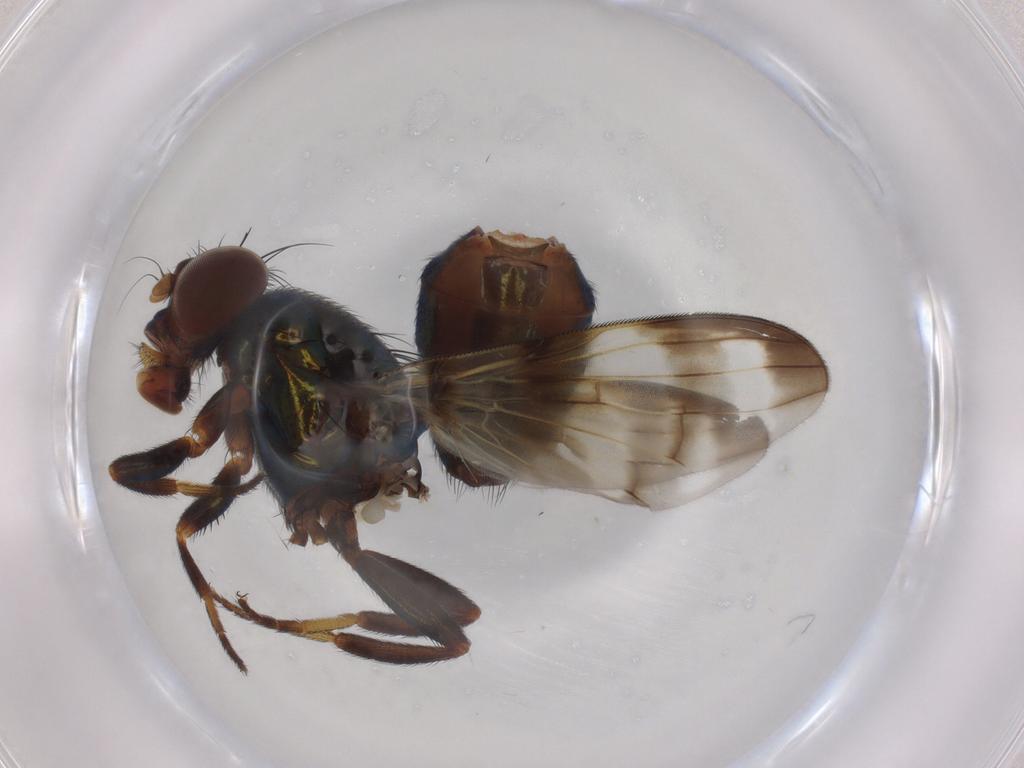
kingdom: Animalia
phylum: Arthropoda
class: Insecta
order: Diptera
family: Ulidiidae
